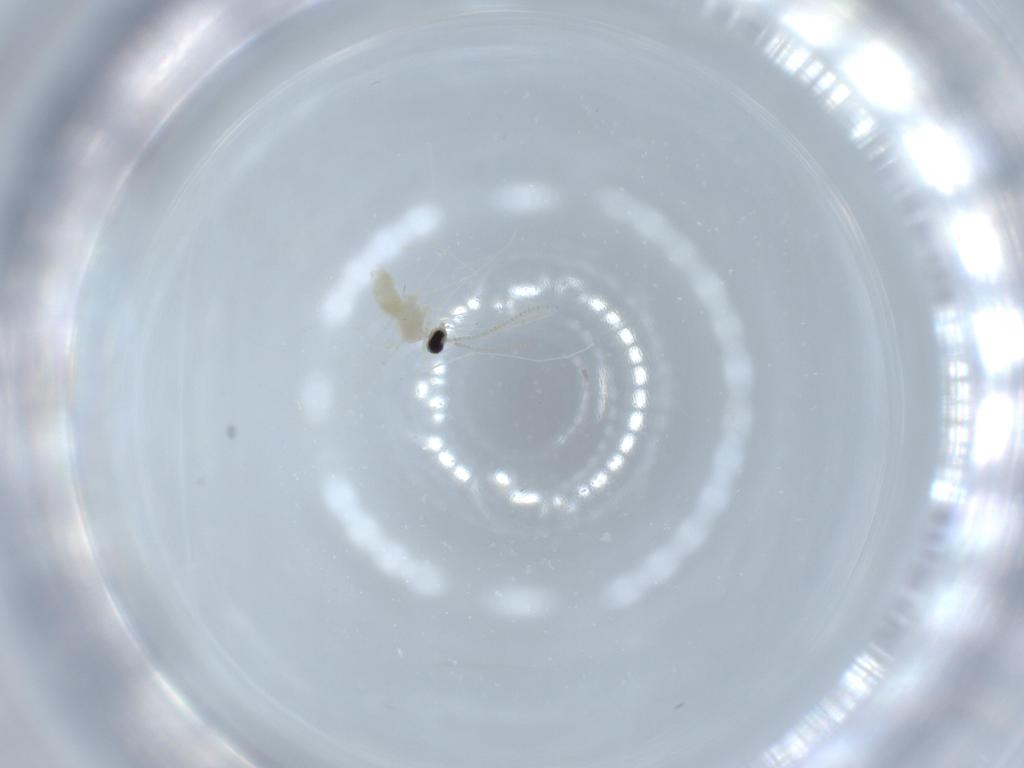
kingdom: Animalia
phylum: Arthropoda
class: Insecta
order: Diptera
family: Cecidomyiidae
